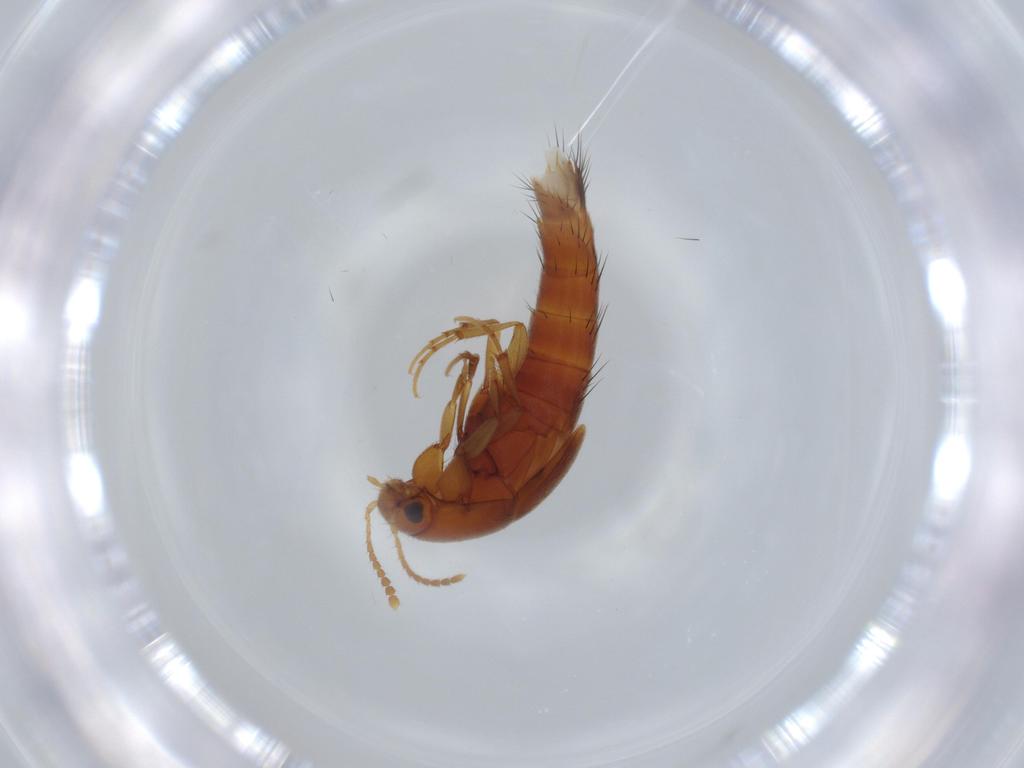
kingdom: Animalia
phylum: Arthropoda
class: Insecta
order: Coleoptera
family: Staphylinidae
